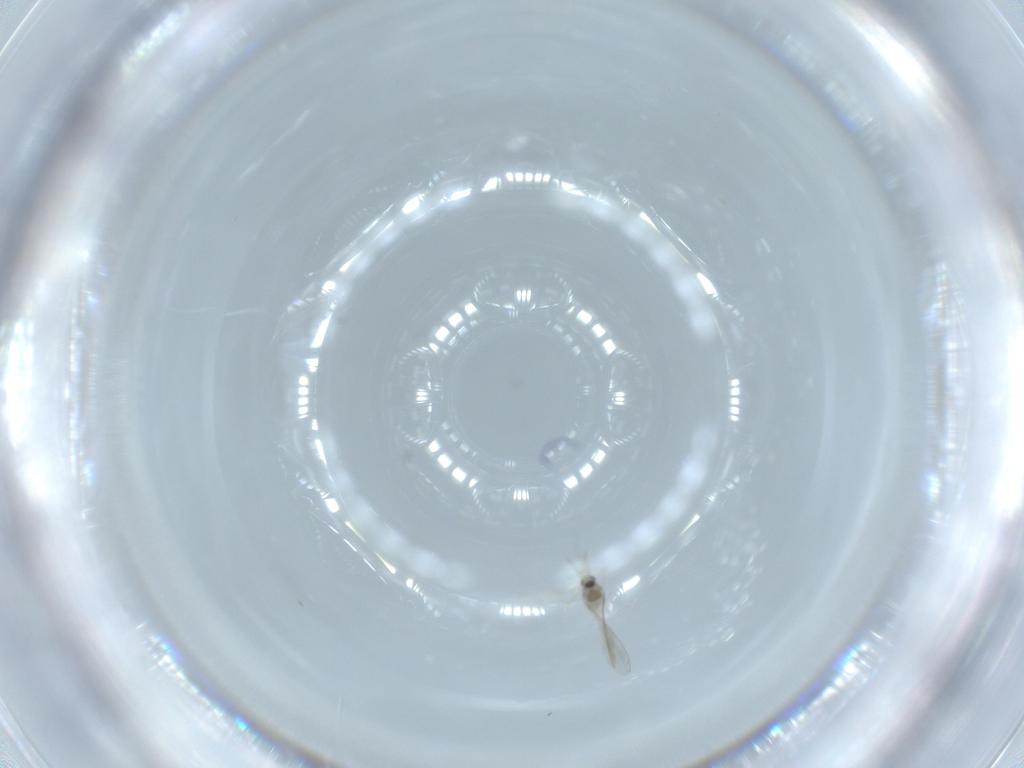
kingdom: Animalia
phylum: Arthropoda
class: Insecta
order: Diptera
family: Cecidomyiidae
